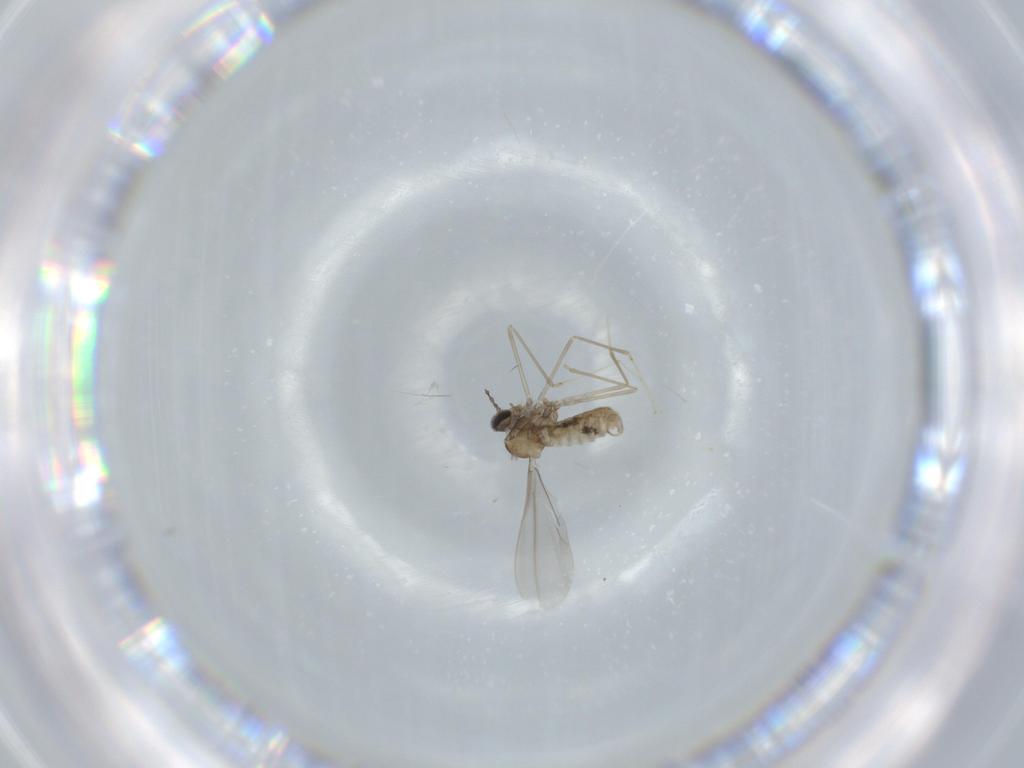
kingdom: Animalia
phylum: Arthropoda
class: Insecta
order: Diptera
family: Cecidomyiidae
